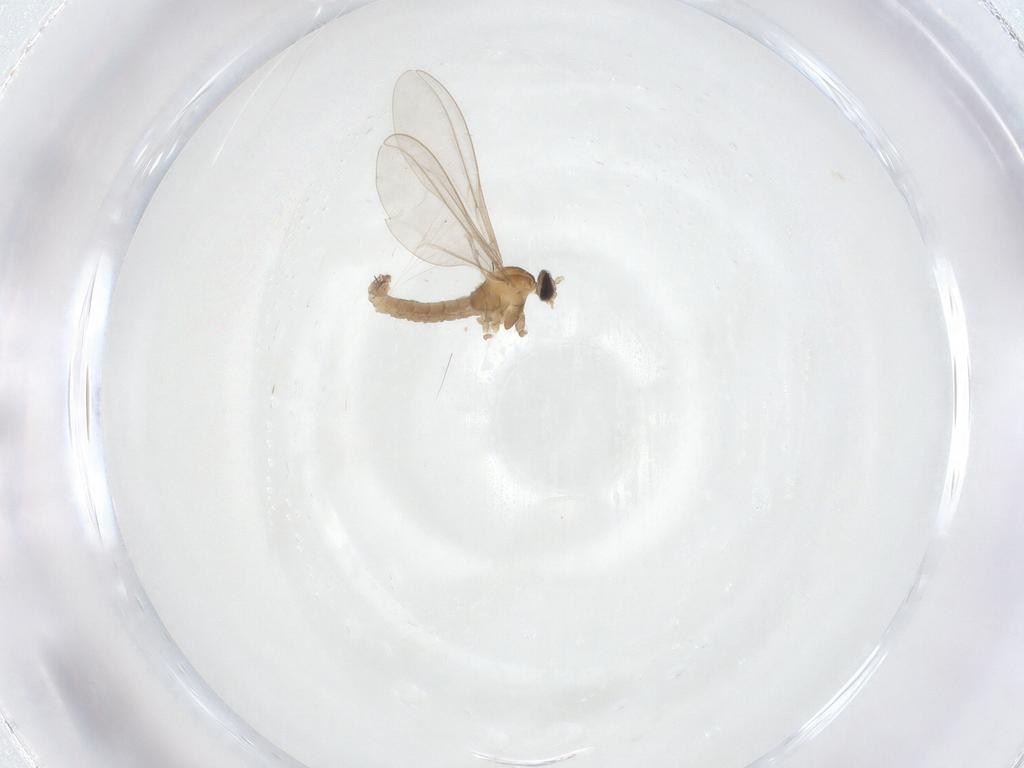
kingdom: Animalia
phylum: Arthropoda
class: Insecta
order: Diptera
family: Cecidomyiidae
